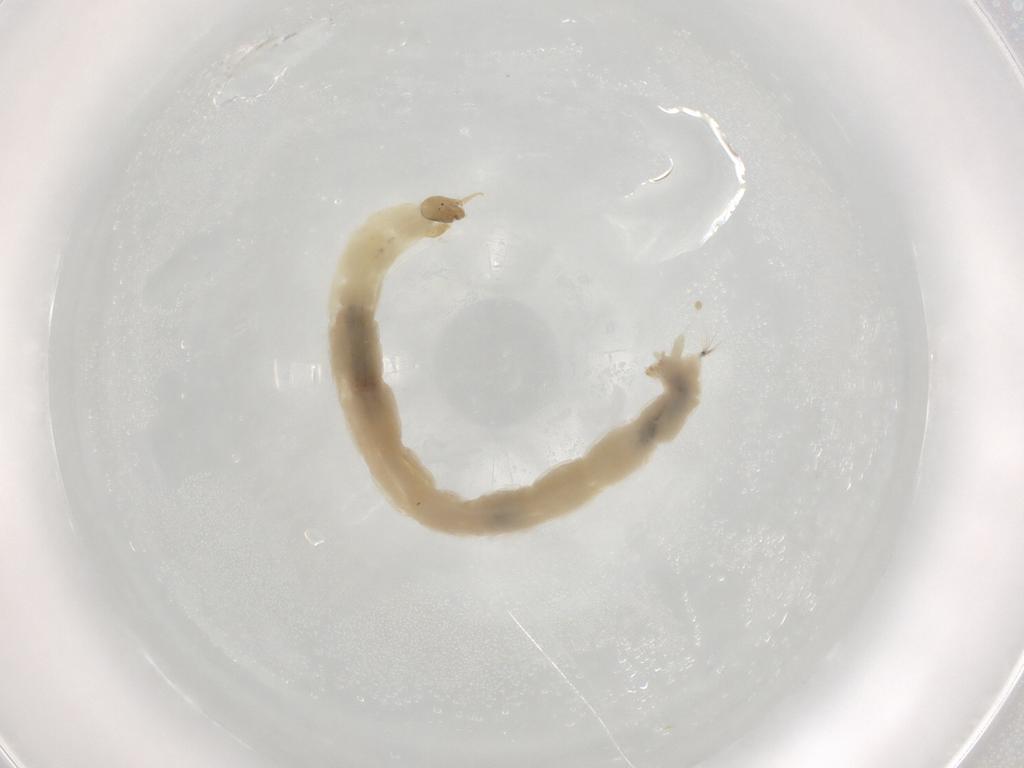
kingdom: Animalia
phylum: Arthropoda
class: Insecta
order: Diptera
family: Chironomidae
